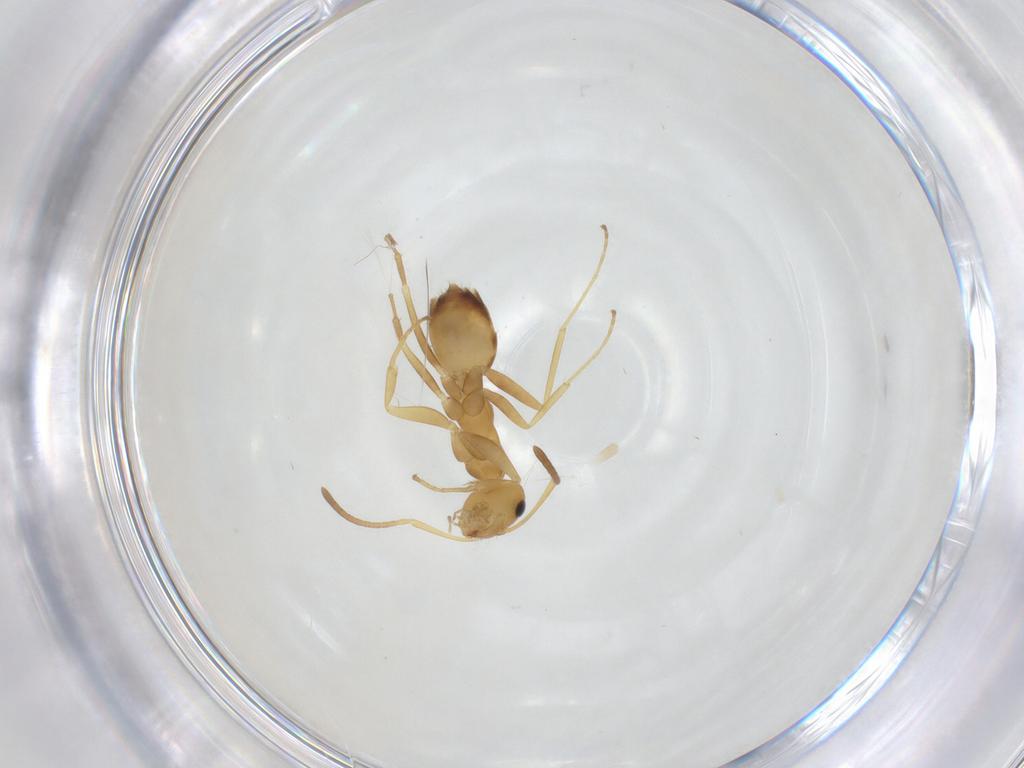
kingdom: Animalia
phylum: Arthropoda
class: Insecta
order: Hymenoptera
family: Formicidae
